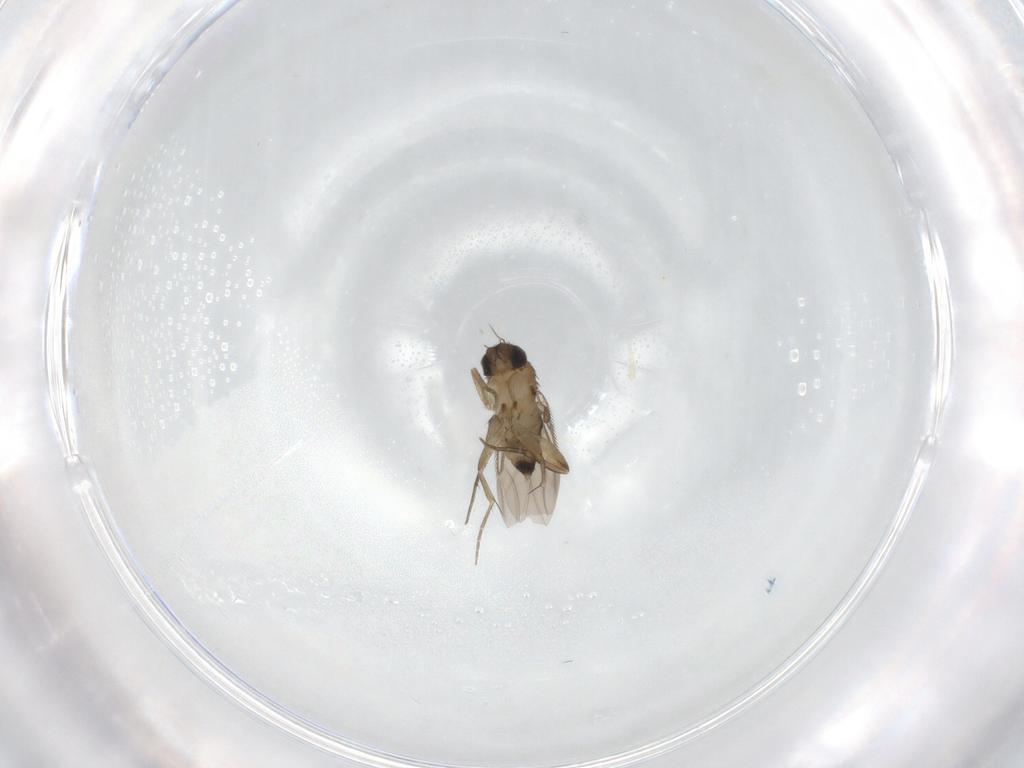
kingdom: Animalia
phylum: Arthropoda
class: Insecta
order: Diptera
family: Phoridae
